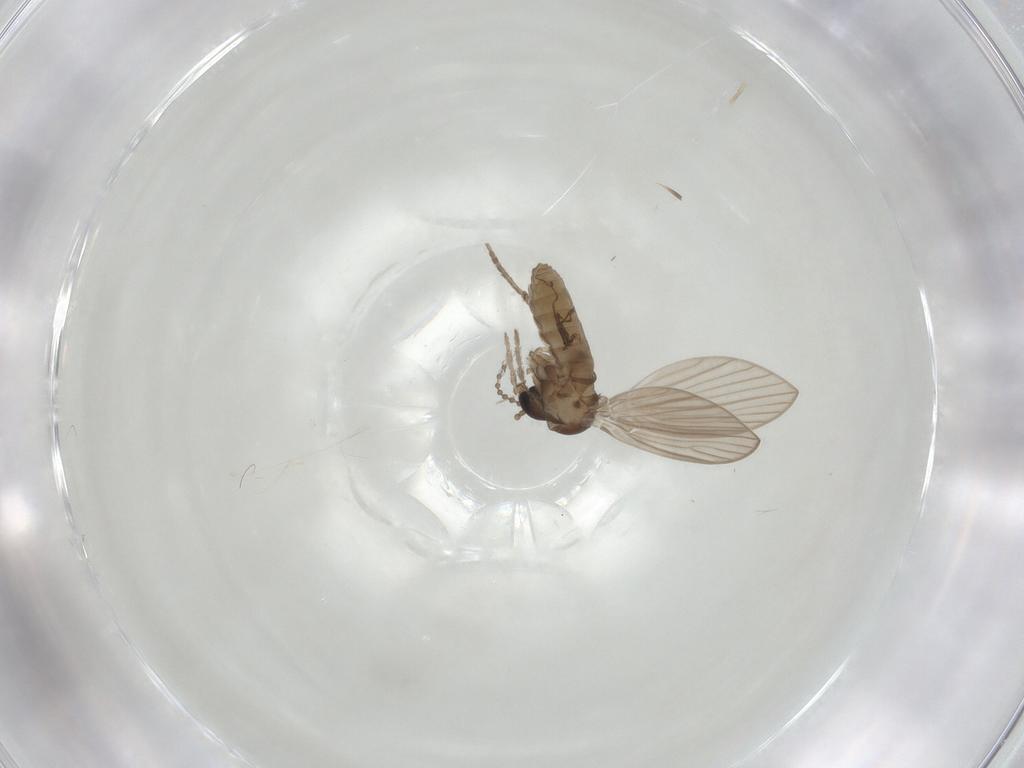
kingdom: Animalia
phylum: Arthropoda
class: Insecta
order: Diptera
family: Psychodidae
